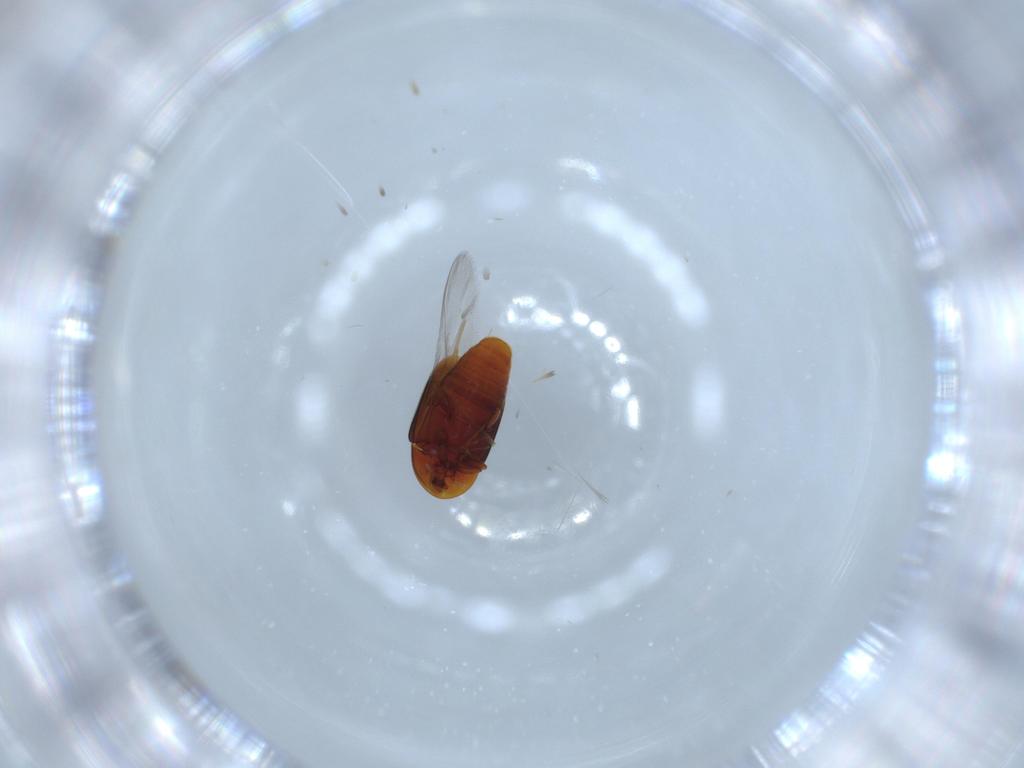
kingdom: Animalia
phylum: Arthropoda
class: Insecta
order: Coleoptera
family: Corylophidae
